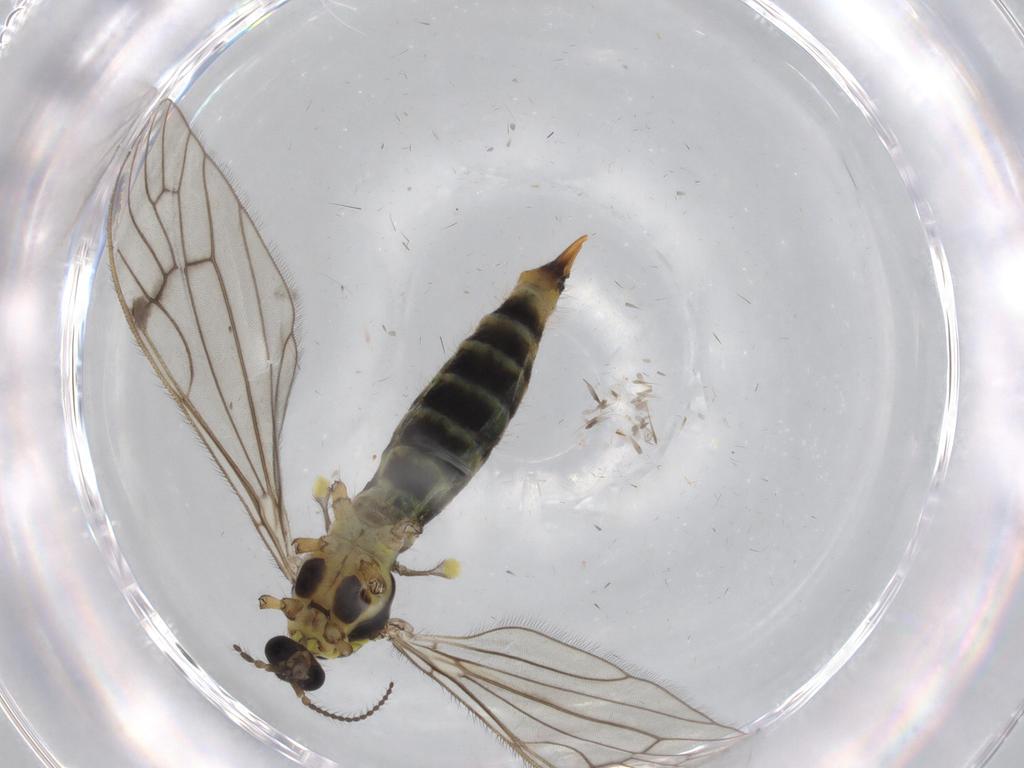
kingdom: Animalia
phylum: Arthropoda
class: Insecta
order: Diptera
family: Limoniidae
